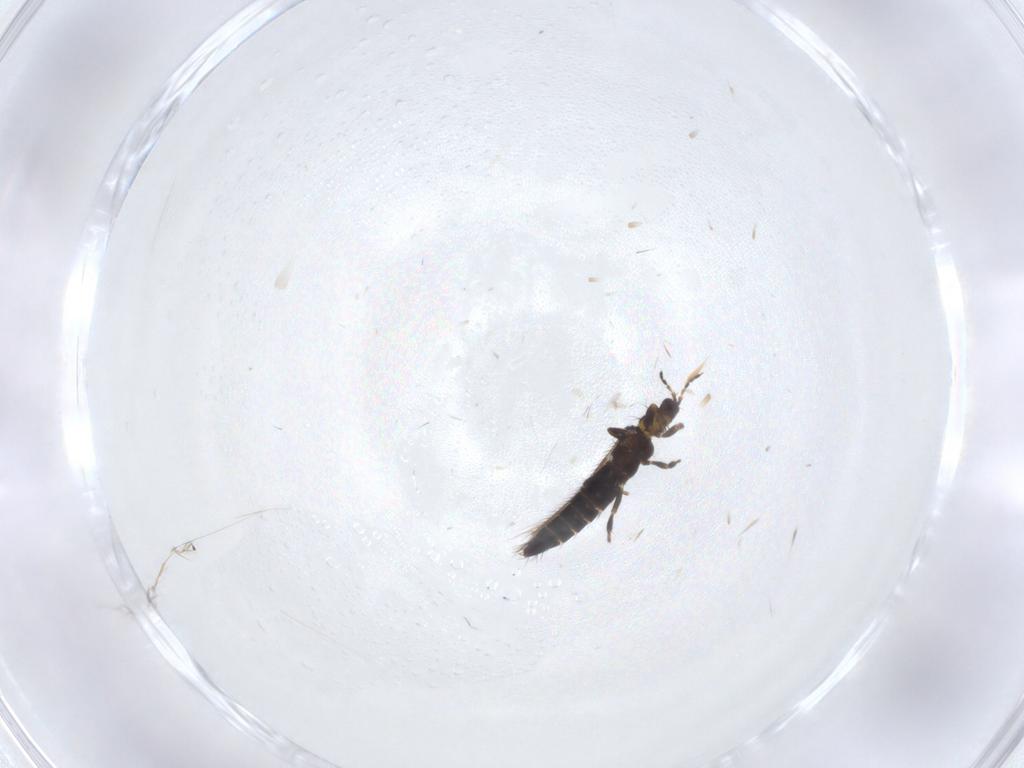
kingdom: Animalia
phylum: Arthropoda
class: Insecta
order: Thysanoptera
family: Thripidae
